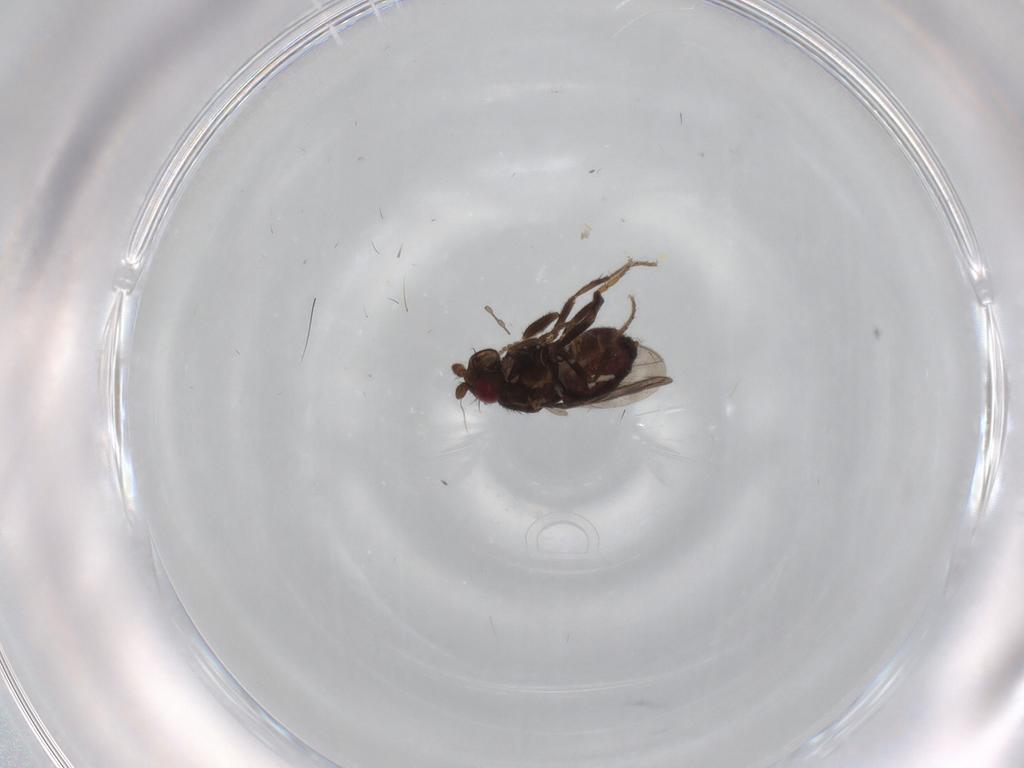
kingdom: Animalia
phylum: Arthropoda
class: Insecta
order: Diptera
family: Sphaeroceridae
